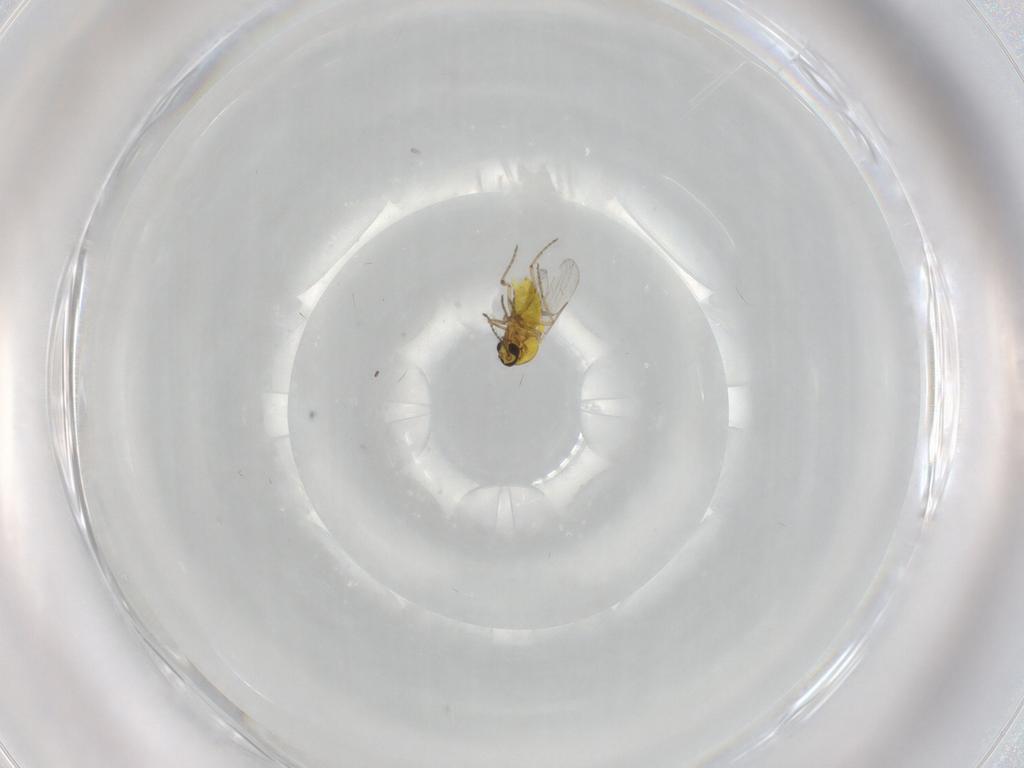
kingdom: Animalia
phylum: Arthropoda
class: Insecta
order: Diptera
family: Ceratopogonidae
